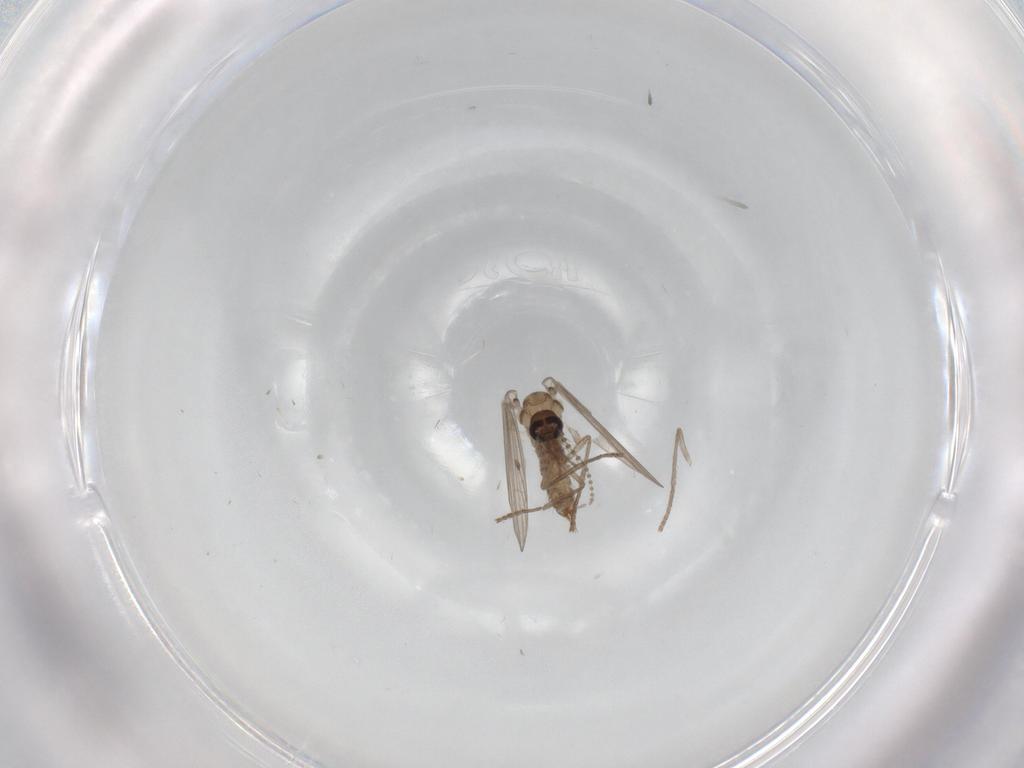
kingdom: Animalia
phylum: Arthropoda
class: Insecta
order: Diptera
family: Psychodidae
